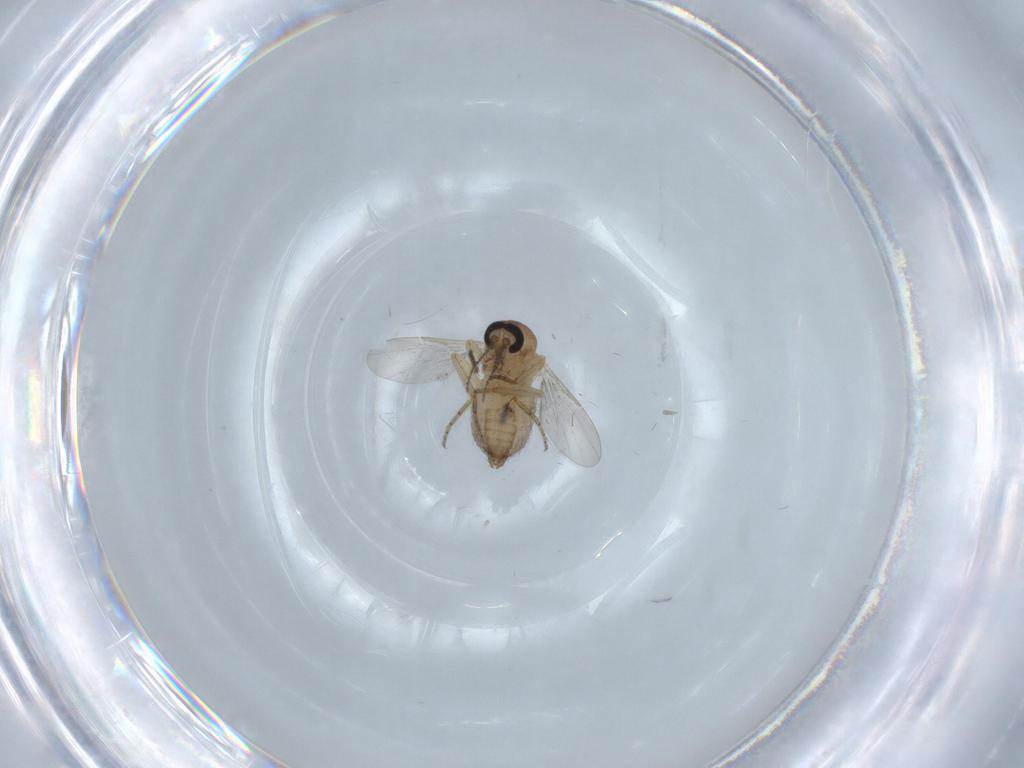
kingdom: Animalia
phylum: Arthropoda
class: Insecta
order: Diptera
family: Ceratopogonidae
